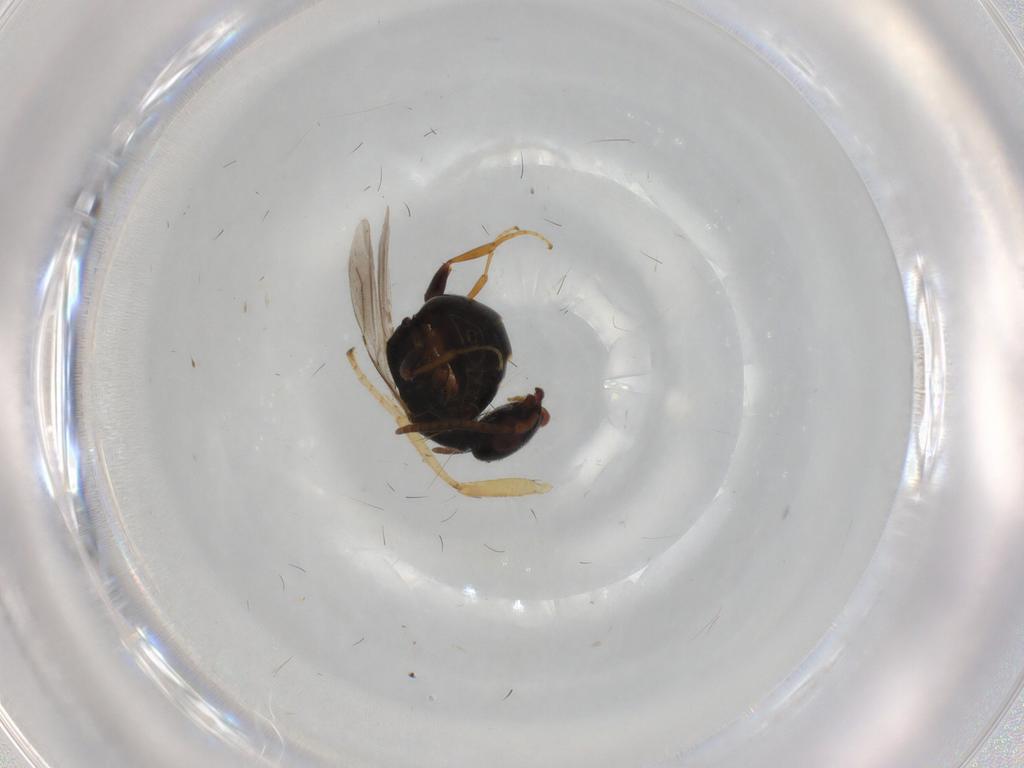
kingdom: Animalia
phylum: Arthropoda
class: Insecta
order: Hymenoptera
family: Bethylidae
